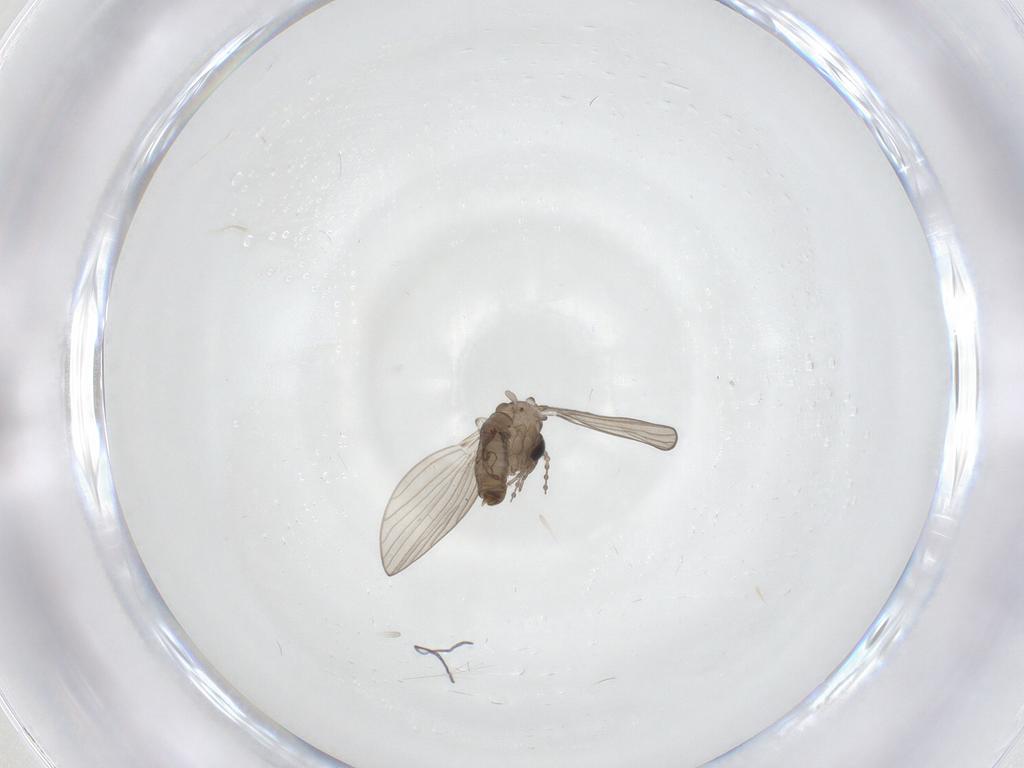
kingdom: Animalia
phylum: Arthropoda
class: Insecta
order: Diptera
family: Psychodidae
